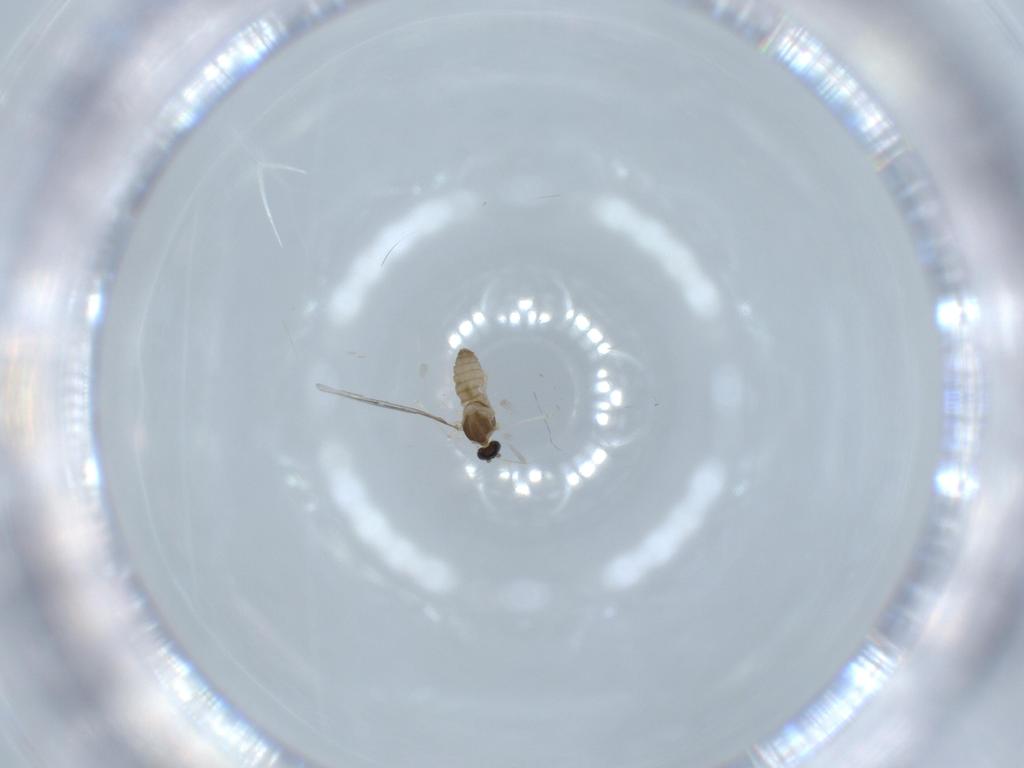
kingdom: Animalia
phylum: Arthropoda
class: Insecta
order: Diptera
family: Cecidomyiidae
